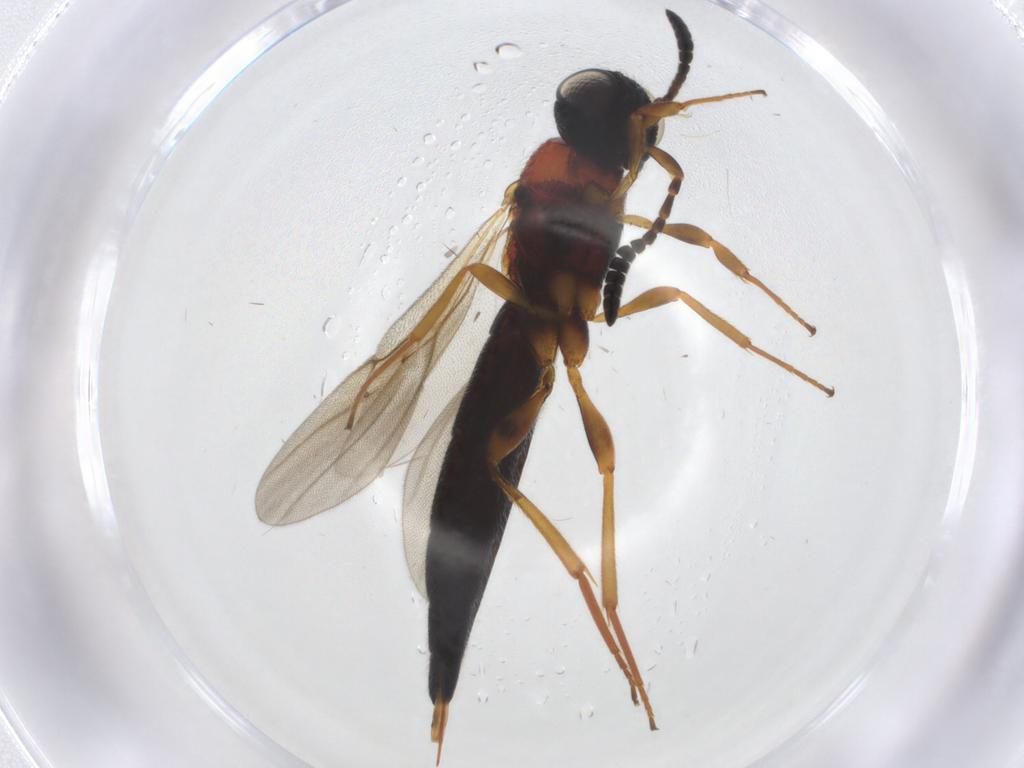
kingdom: Animalia
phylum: Arthropoda
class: Insecta
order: Hymenoptera
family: Scelionidae
